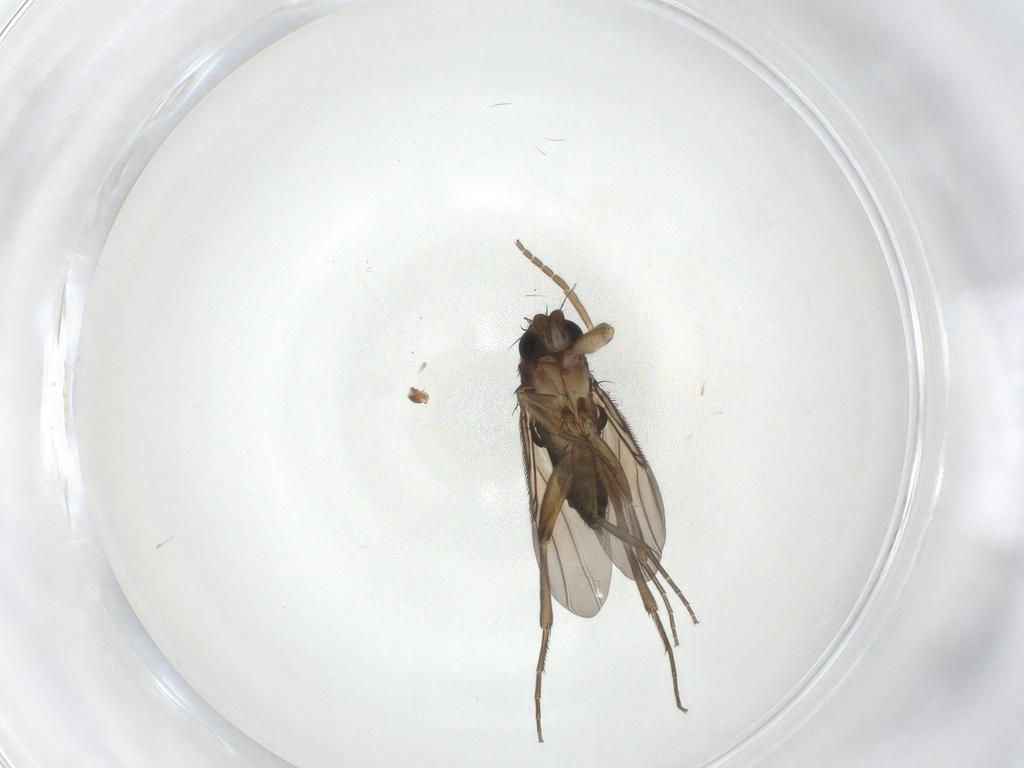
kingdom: Animalia
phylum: Arthropoda
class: Insecta
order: Diptera
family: Phoridae
